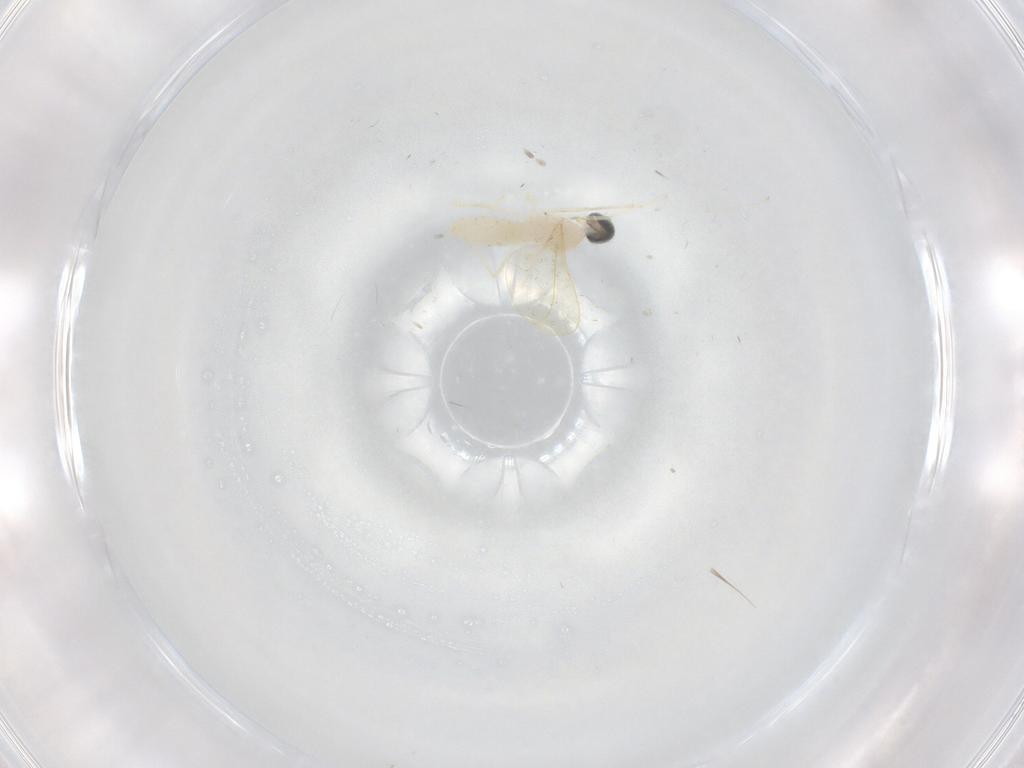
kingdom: Animalia
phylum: Arthropoda
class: Insecta
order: Diptera
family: Cecidomyiidae
